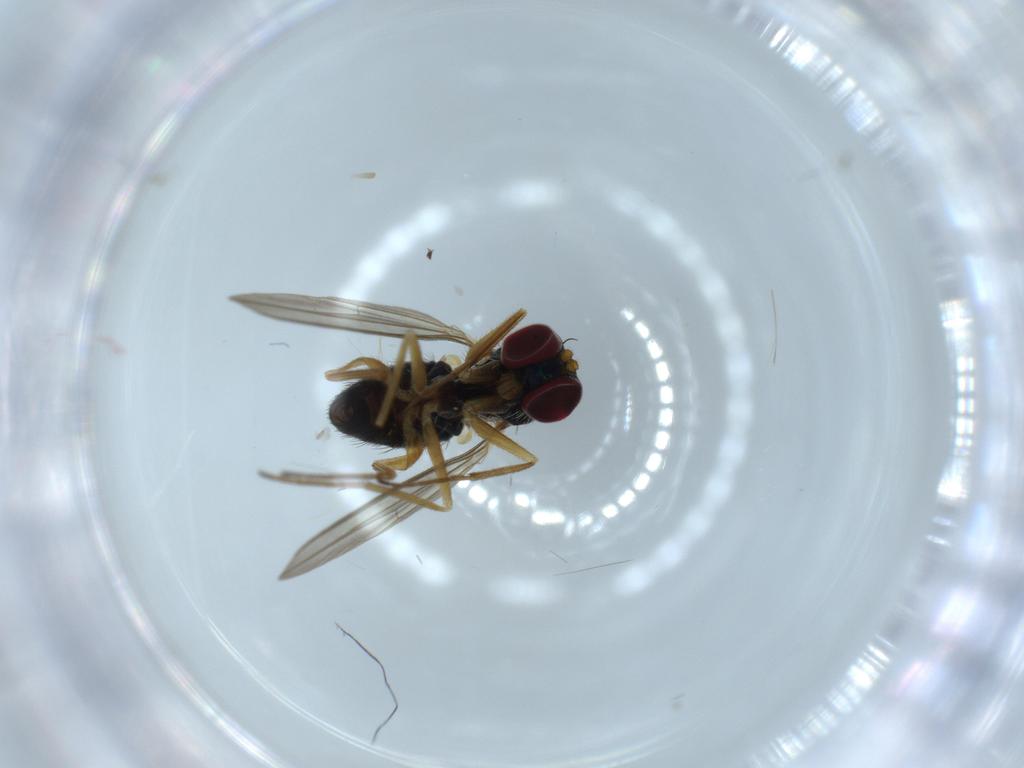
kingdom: Animalia
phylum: Arthropoda
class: Insecta
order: Diptera
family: Dolichopodidae
